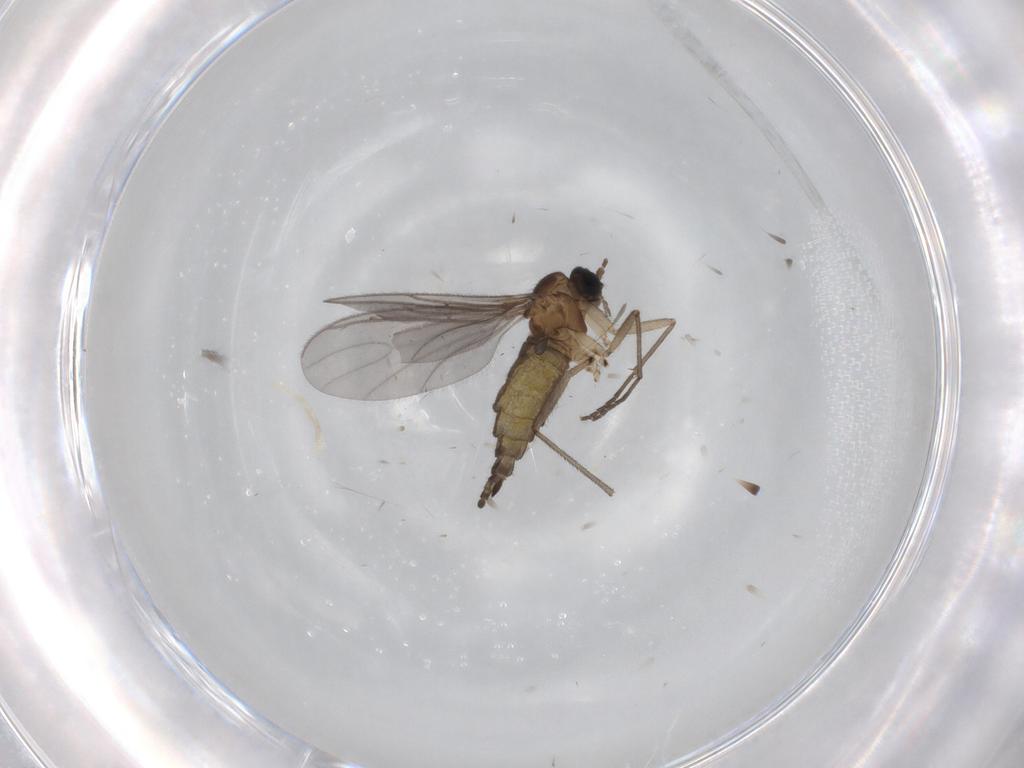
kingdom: Animalia
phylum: Arthropoda
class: Insecta
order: Diptera
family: Sciaridae
